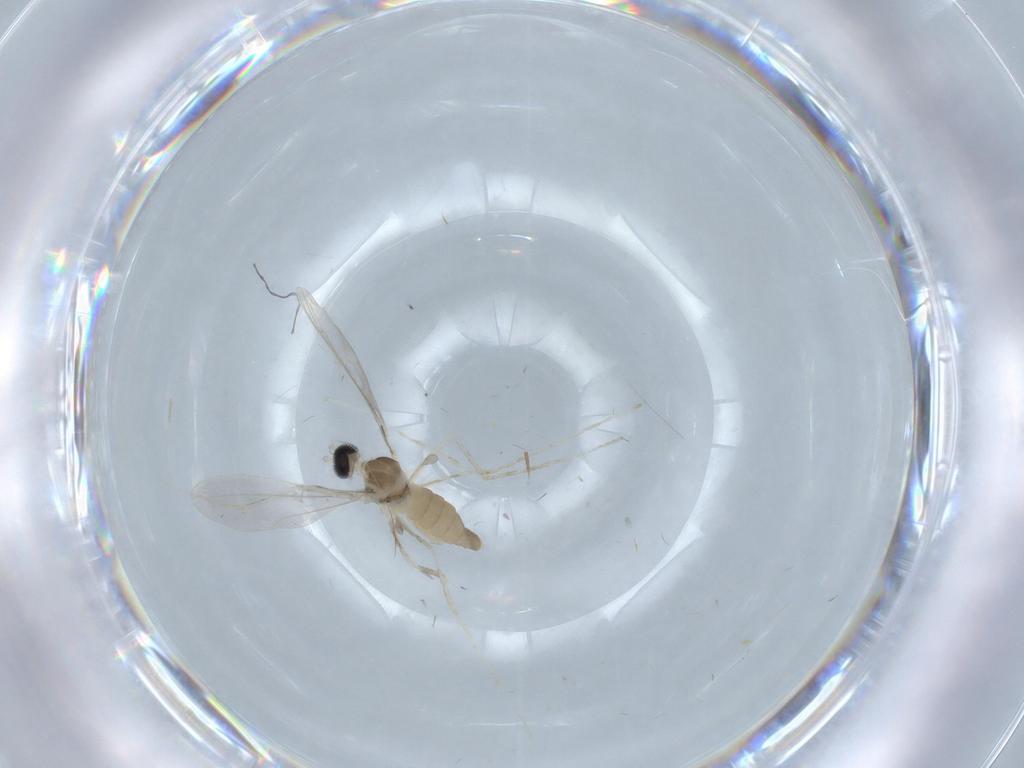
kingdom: Animalia
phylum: Arthropoda
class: Insecta
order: Diptera
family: Cecidomyiidae
